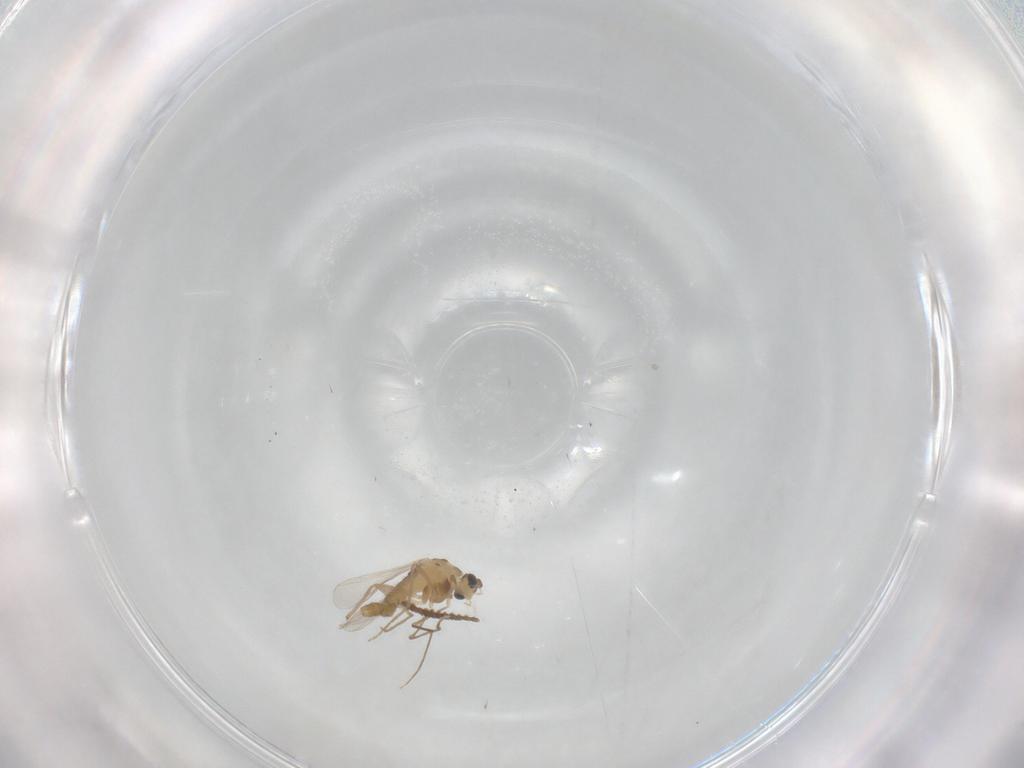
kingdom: Animalia
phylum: Arthropoda
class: Insecta
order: Diptera
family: Chironomidae
